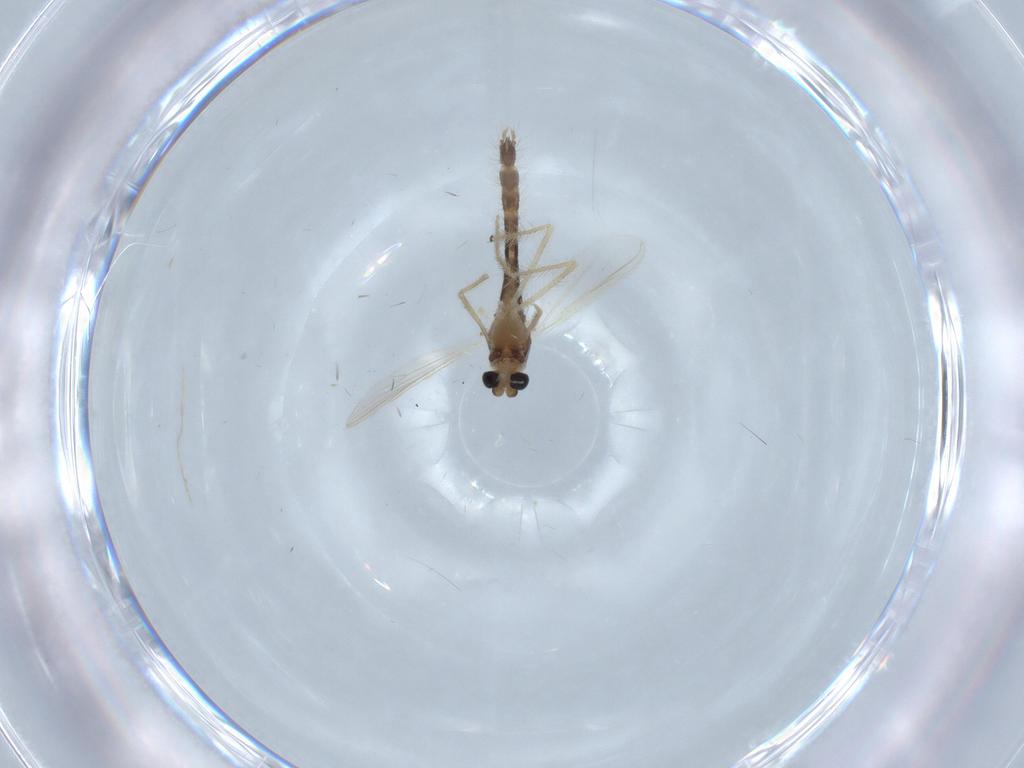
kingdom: Animalia
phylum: Arthropoda
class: Insecta
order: Diptera
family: Chironomidae
